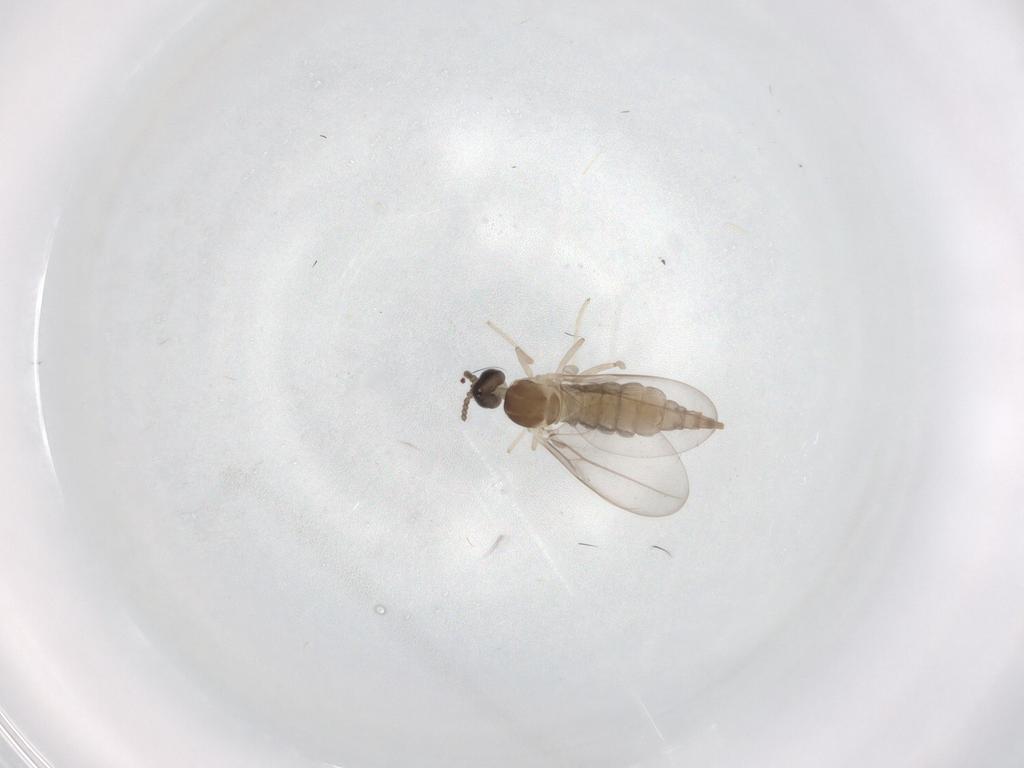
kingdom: Animalia
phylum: Arthropoda
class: Insecta
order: Diptera
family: Cecidomyiidae
